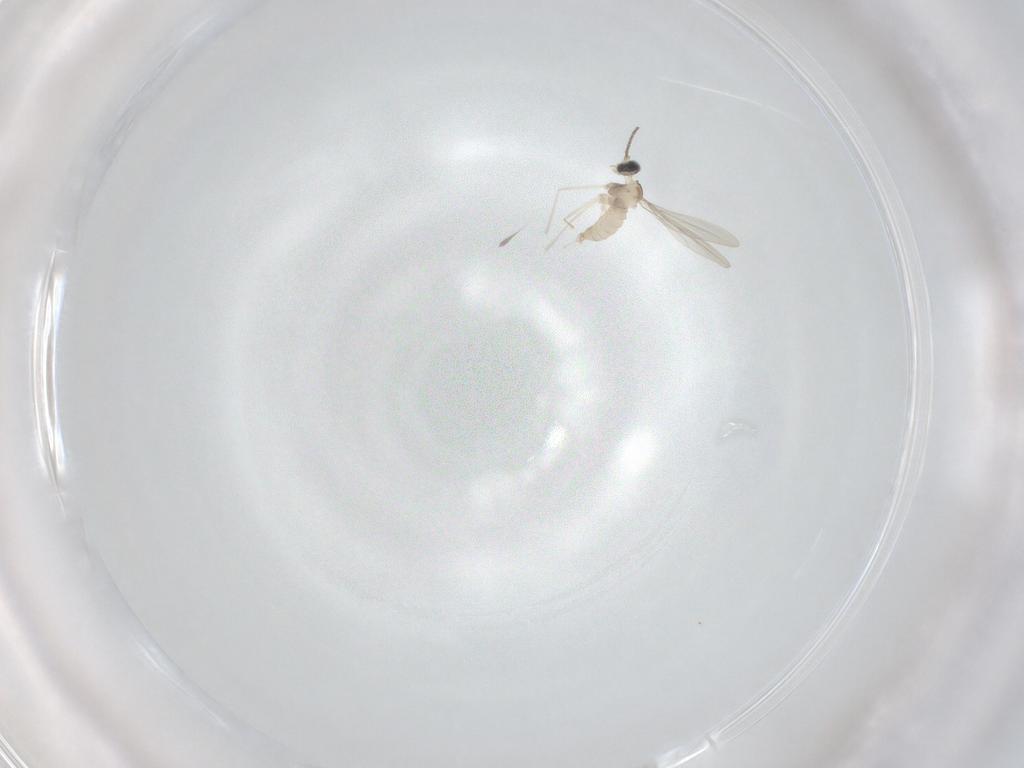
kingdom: Animalia
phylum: Arthropoda
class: Insecta
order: Diptera
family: Cecidomyiidae
